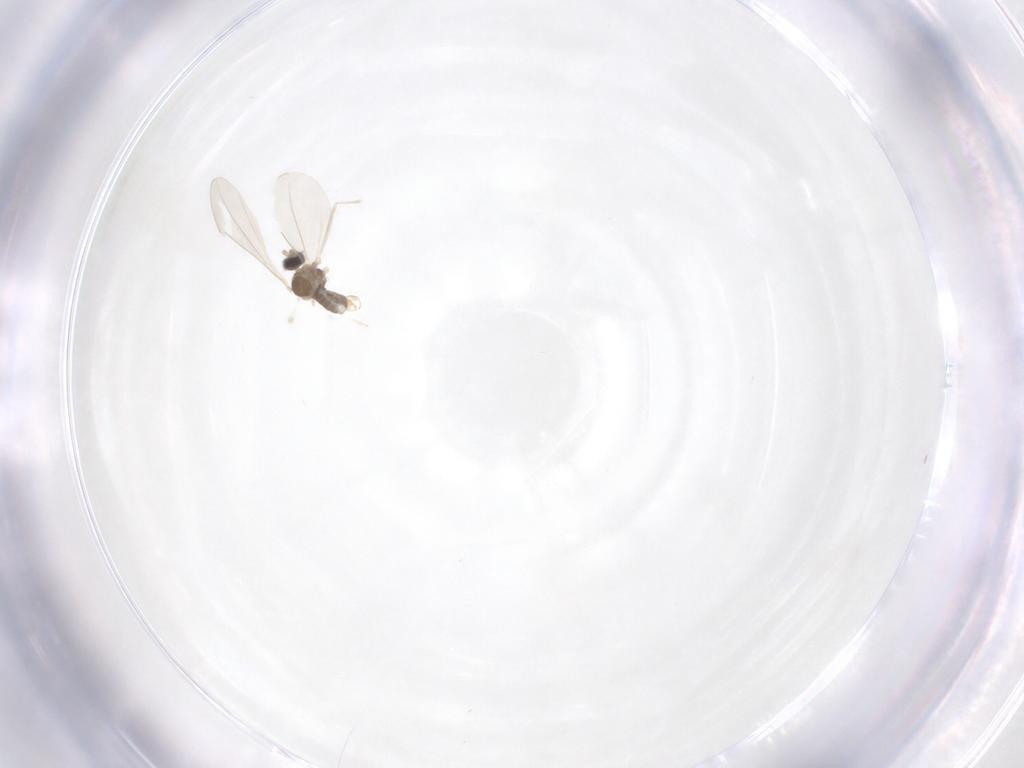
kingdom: Animalia
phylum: Arthropoda
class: Insecta
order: Diptera
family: Cecidomyiidae
